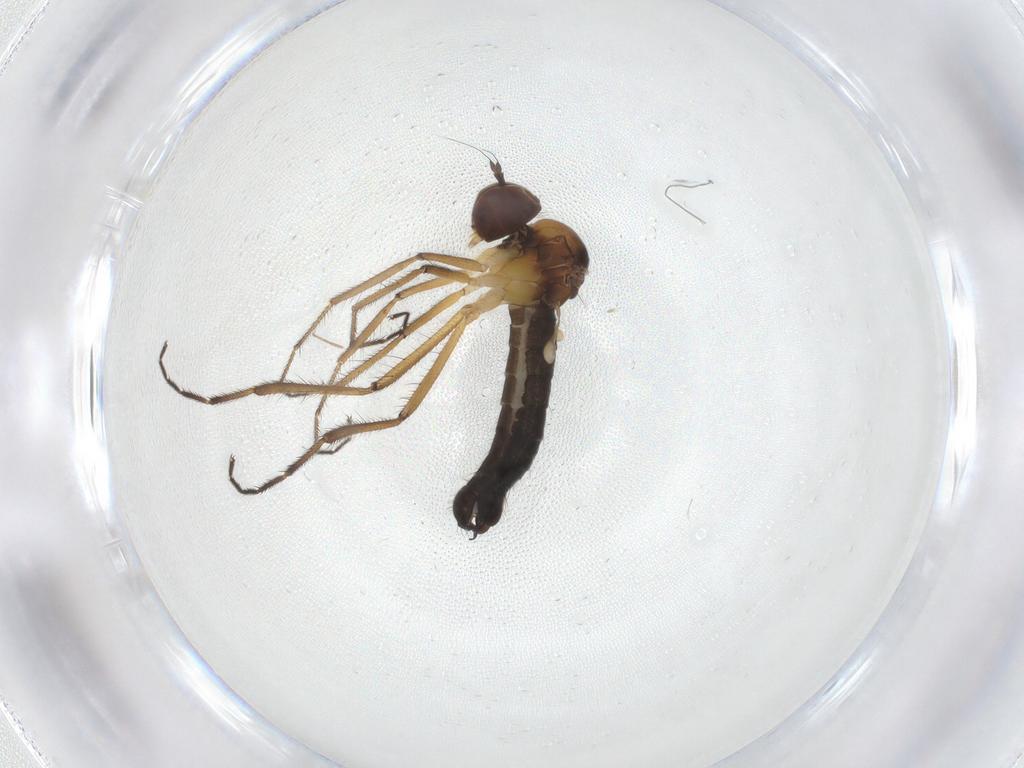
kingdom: Animalia
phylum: Arthropoda
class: Insecta
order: Diptera
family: Hybotidae
